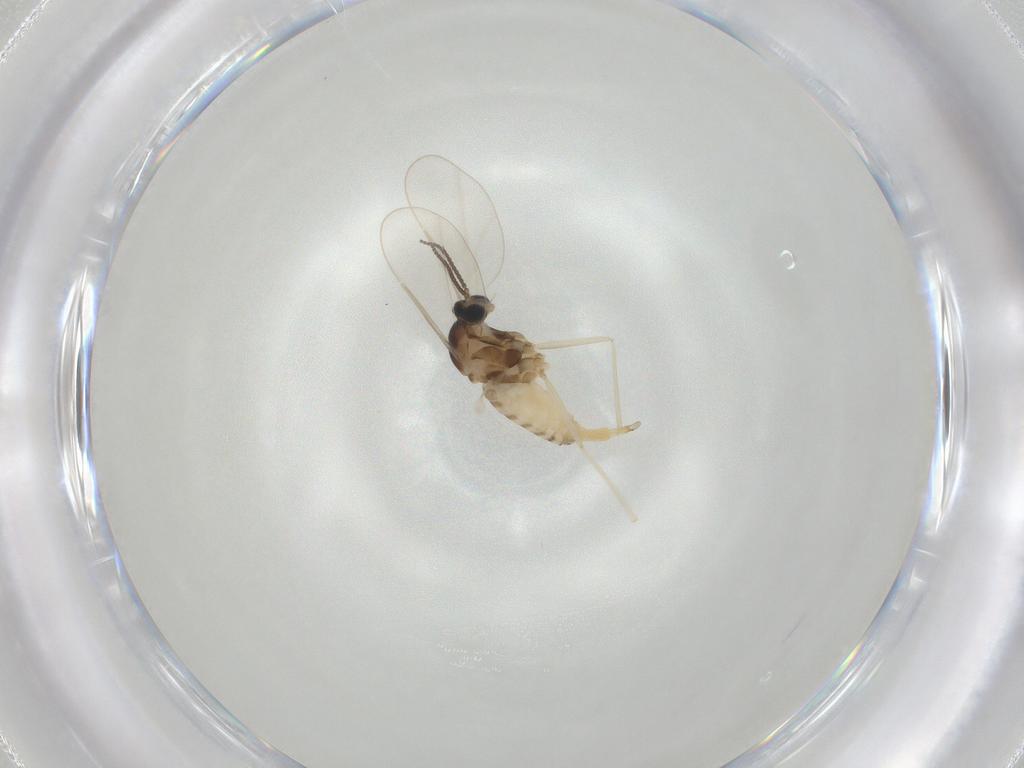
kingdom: Animalia
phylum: Arthropoda
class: Insecta
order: Diptera
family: Cecidomyiidae
